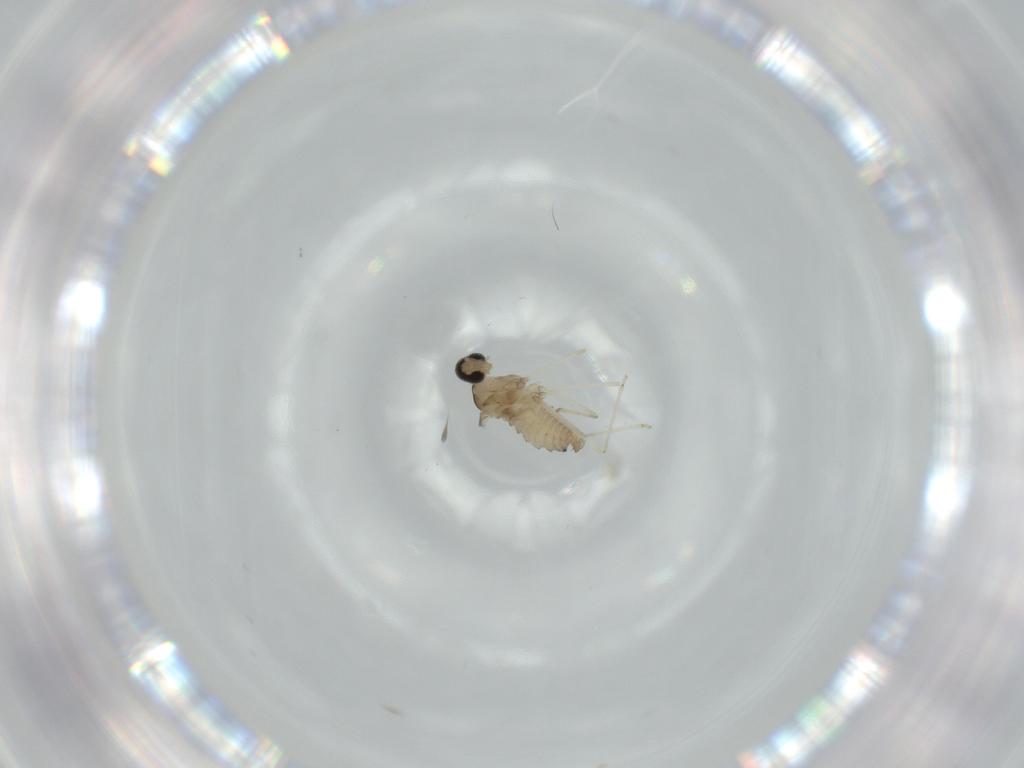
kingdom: Animalia
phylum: Arthropoda
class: Insecta
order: Diptera
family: Cecidomyiidae
